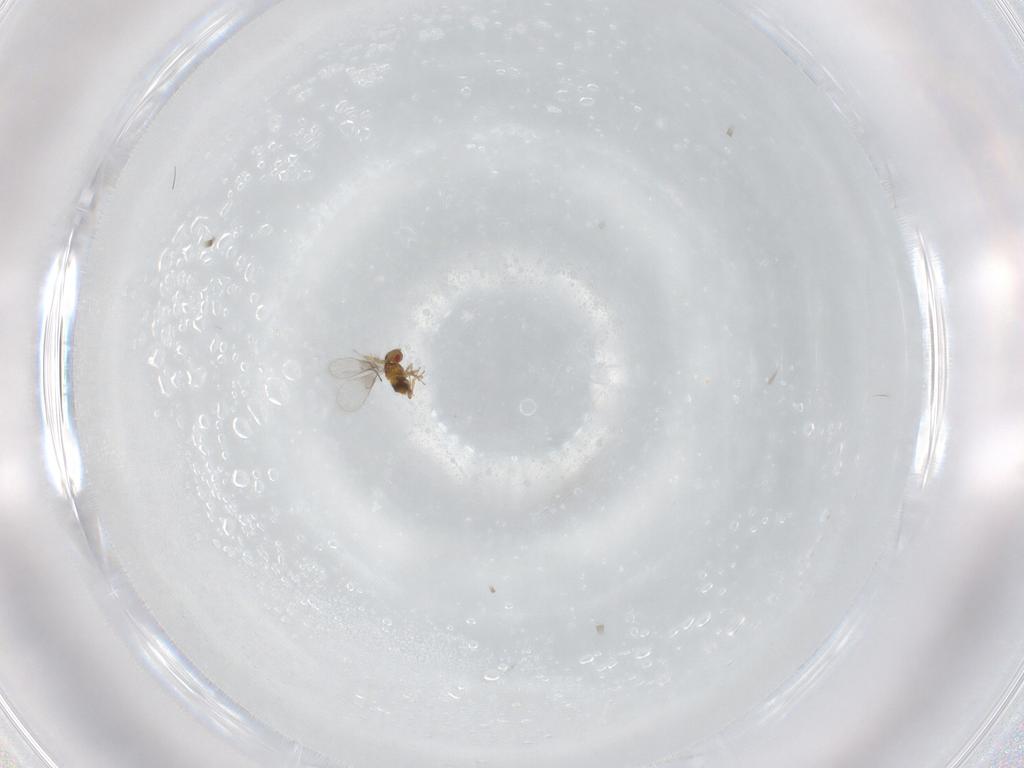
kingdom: Animalia
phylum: Arthropoda
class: Insecta
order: Hymenoptera
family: Trichogrammatidae
